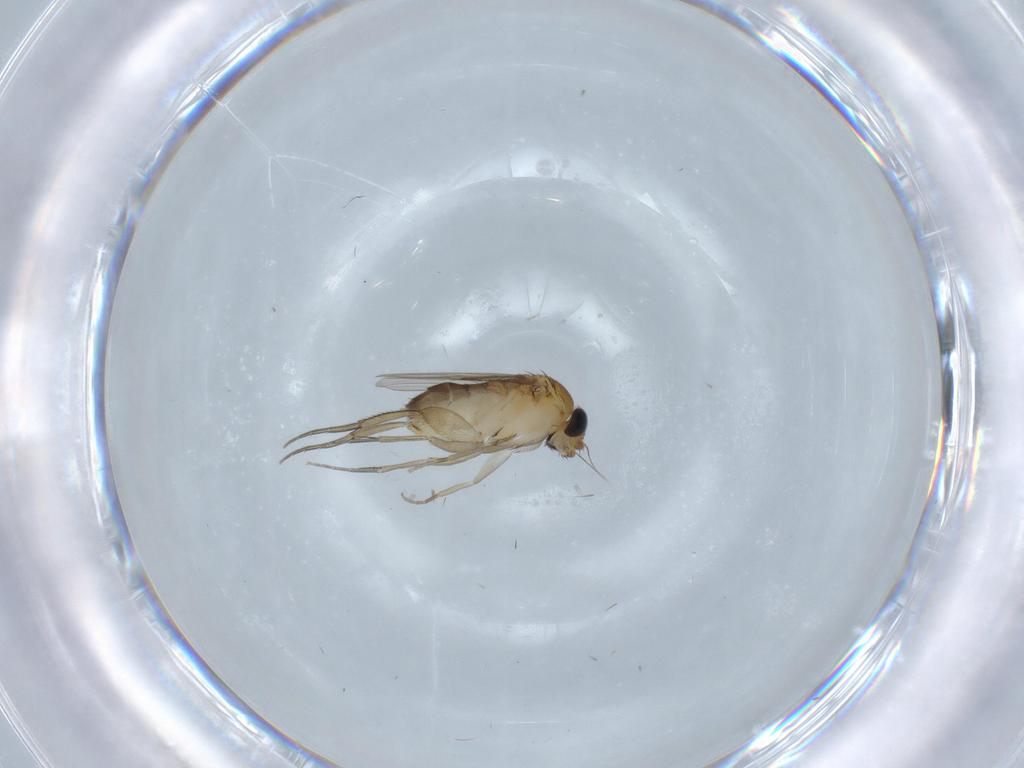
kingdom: Animalia
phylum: Arthropoda
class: Insecta
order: Diptera
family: Phoridae
